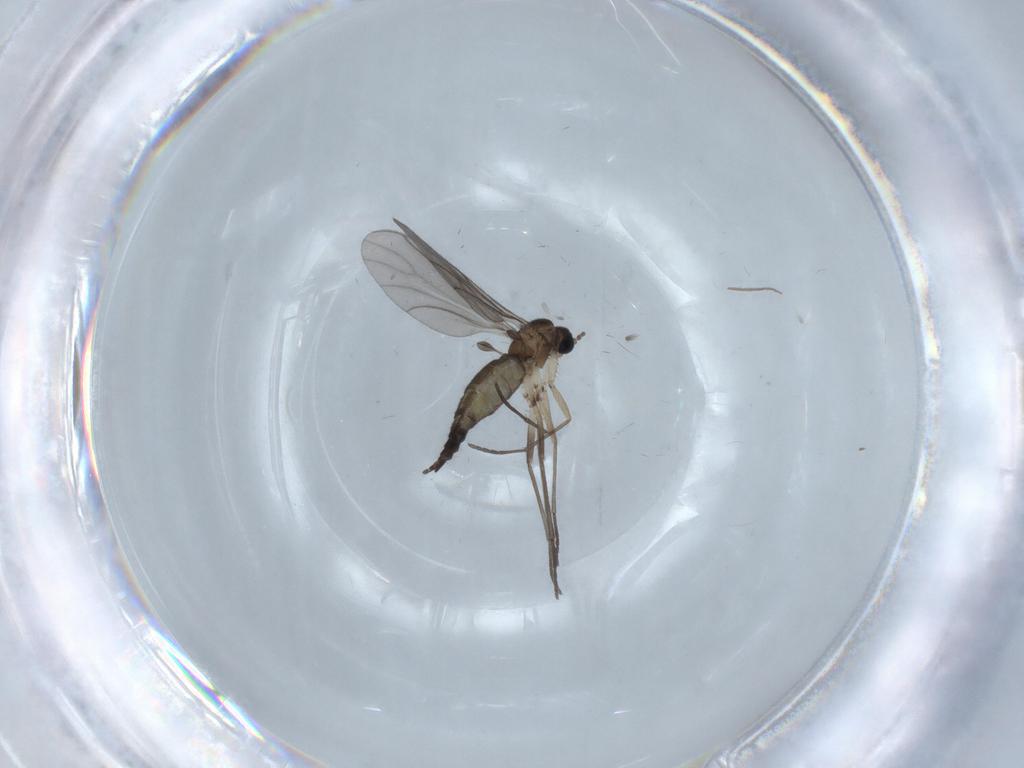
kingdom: Animalia
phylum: Arthropoda
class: Insecta
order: Diptera
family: Sciaridae
